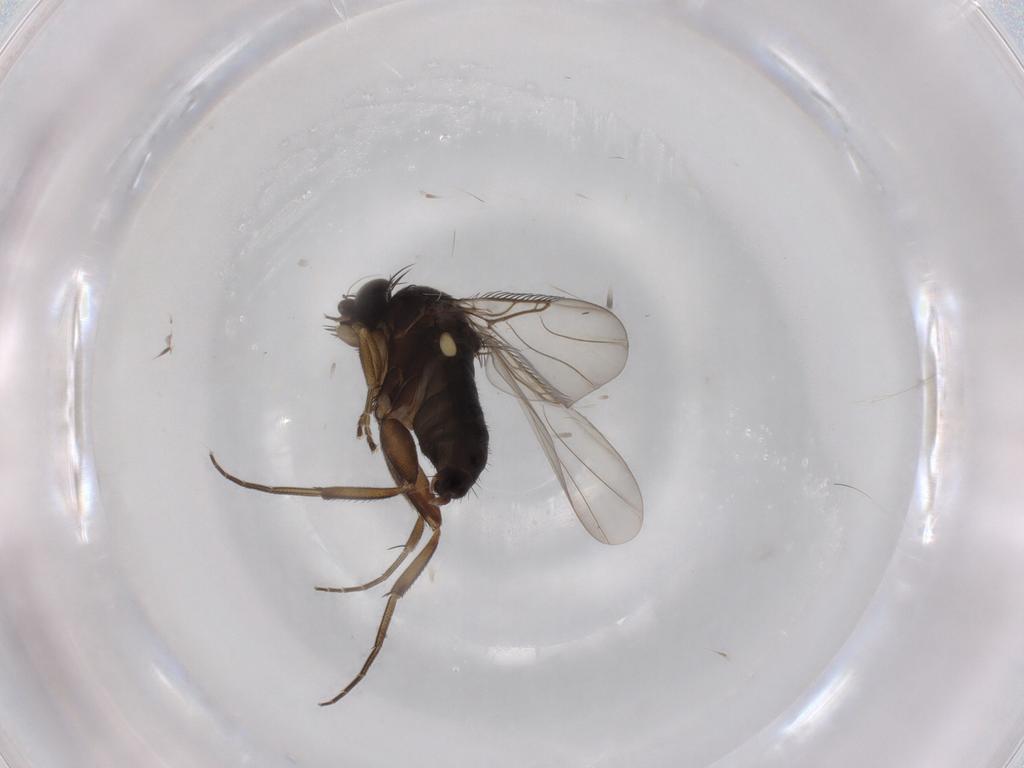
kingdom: Animalia
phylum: Arthropoda
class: Insecta
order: Diptera
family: Phoridae
